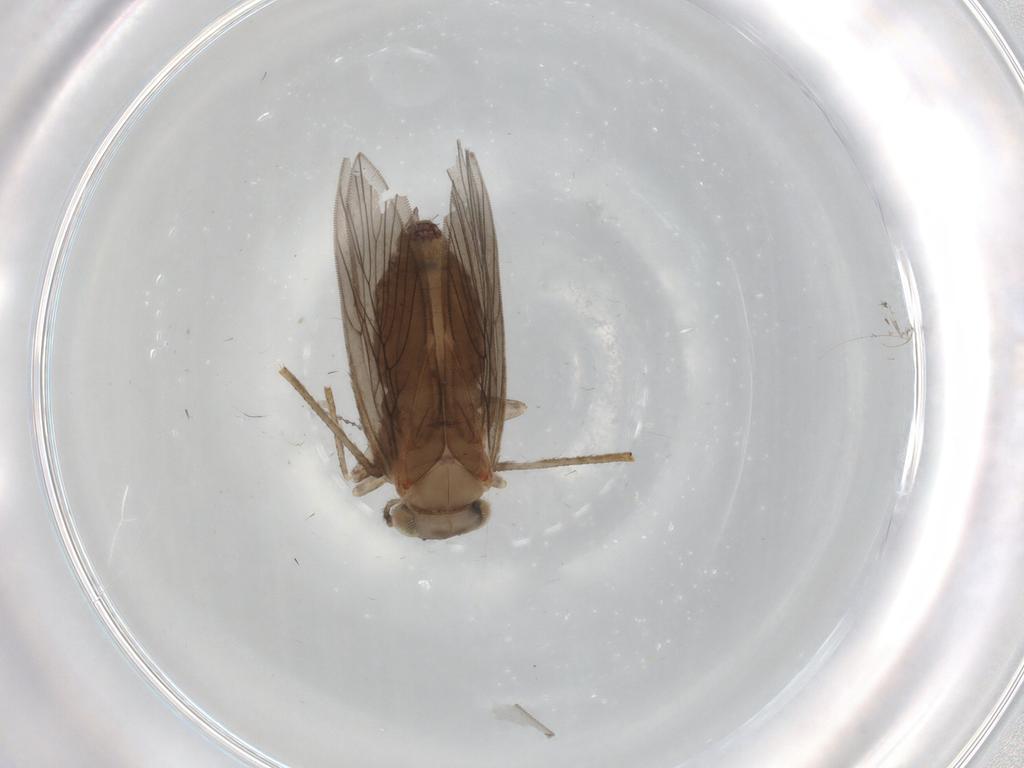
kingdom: Animalia
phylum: Arthropoda
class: Insecta
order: Psocodea
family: Lepidopsocidae
